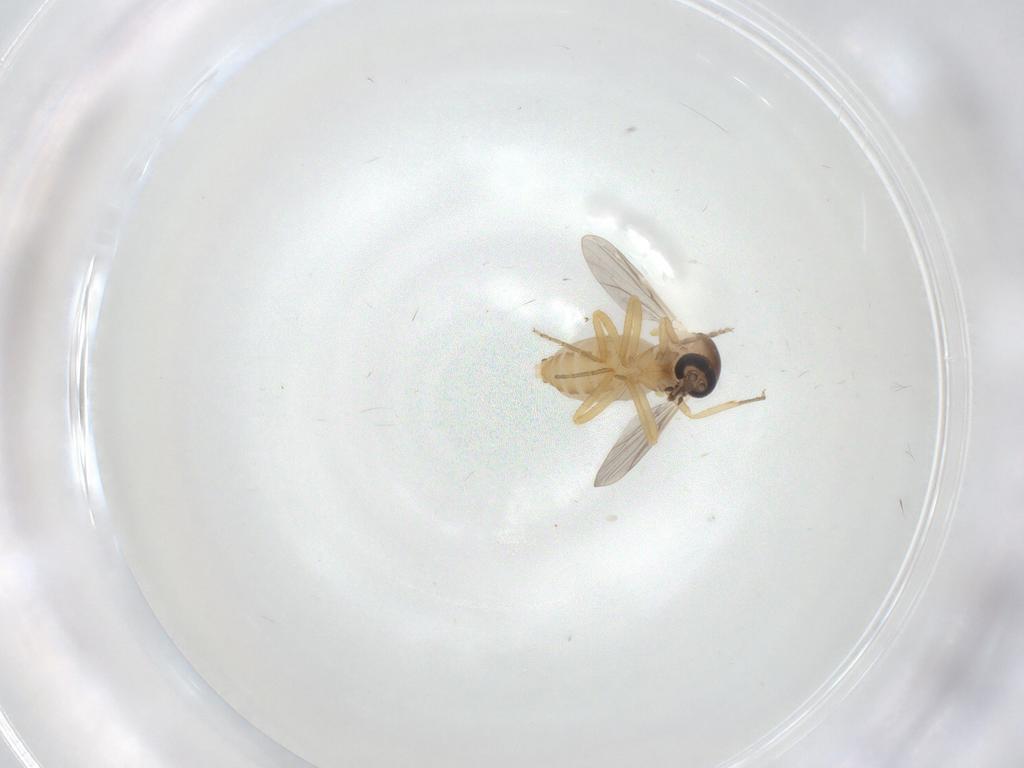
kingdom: Animalia
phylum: Arthropoda
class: Insecta
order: Diptera
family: Ceratopogonidae
